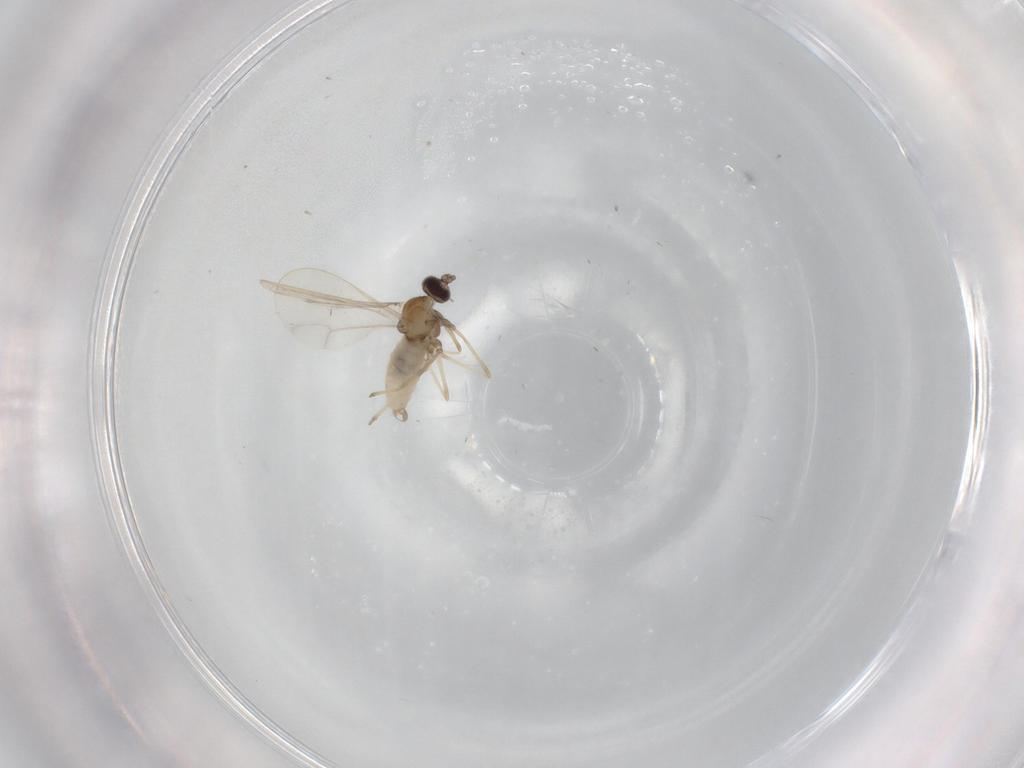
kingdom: Animalia
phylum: Arthropoda
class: Insecta
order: Diptera
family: Cecidomyiidae
